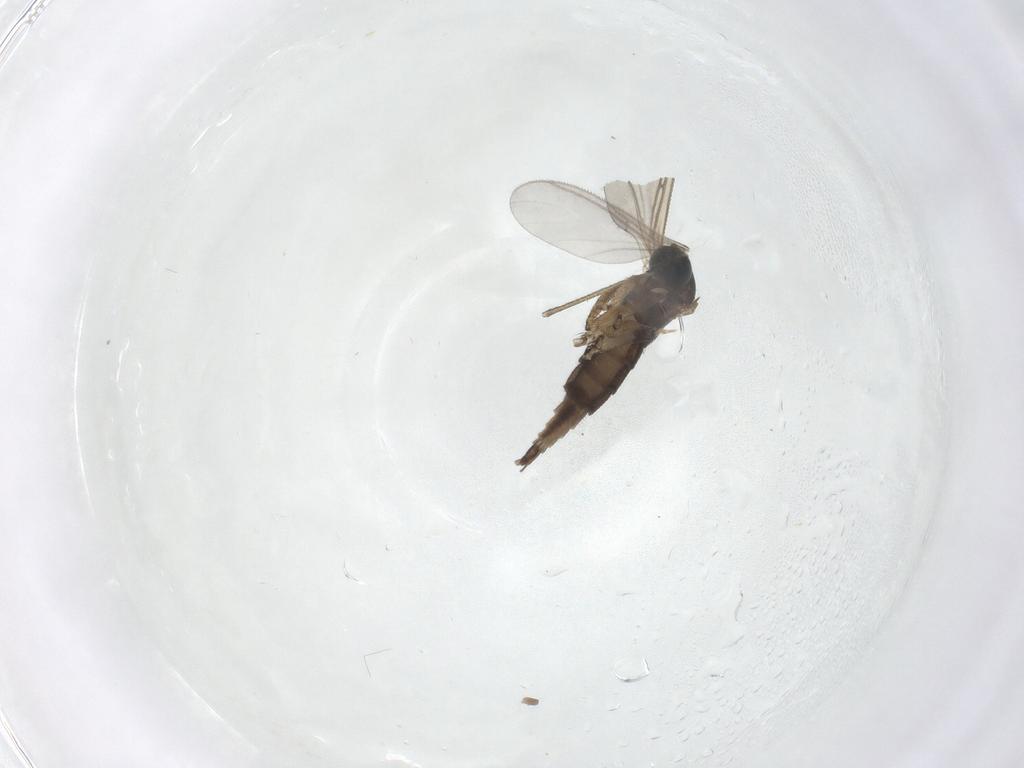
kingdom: Animalia
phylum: Arthropoda
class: Insecta
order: Diptera
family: Sciaridae
